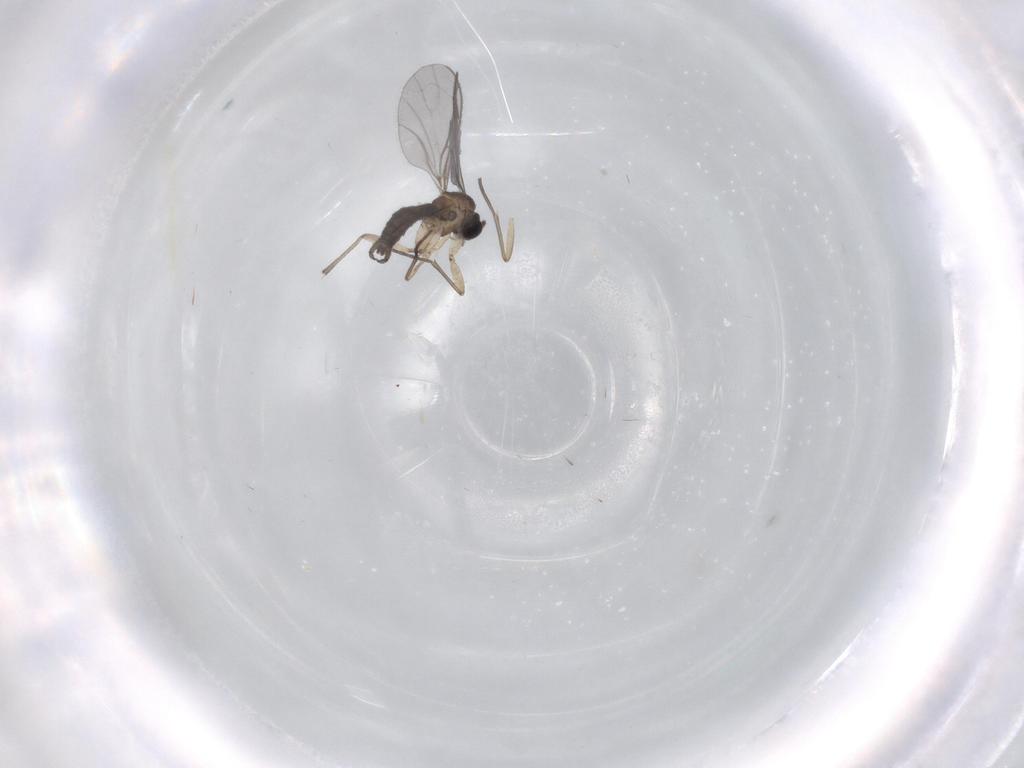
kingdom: Animalia
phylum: Arthropoda
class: Insecta
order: Diptera
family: Sciaridae
